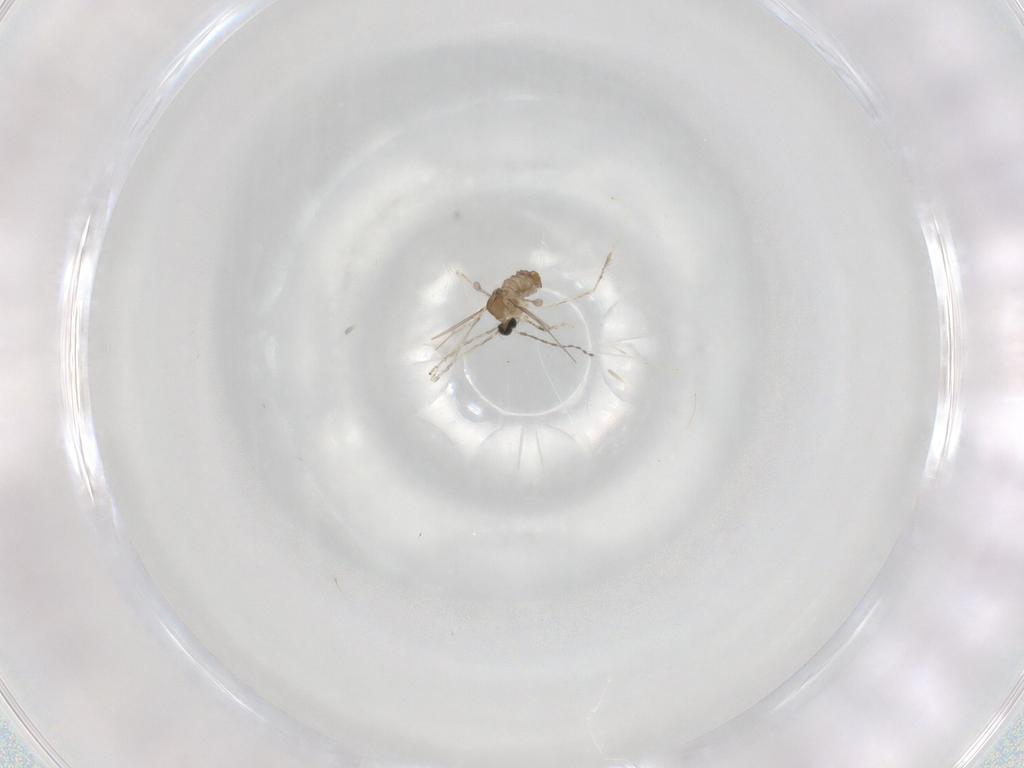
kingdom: Animalia
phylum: Arthropoda
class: Insecta
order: Diptera
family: Cecidomyiidae
